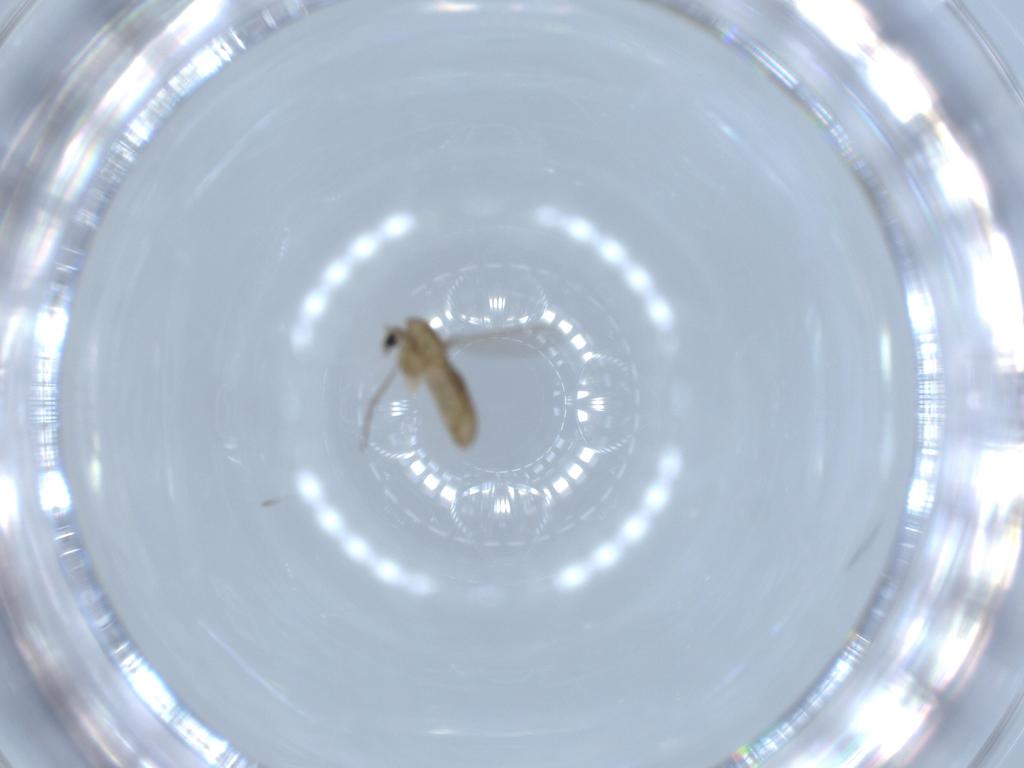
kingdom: Animalia
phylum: Arthropoda
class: Insecta
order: Diptera
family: Chironomidae
